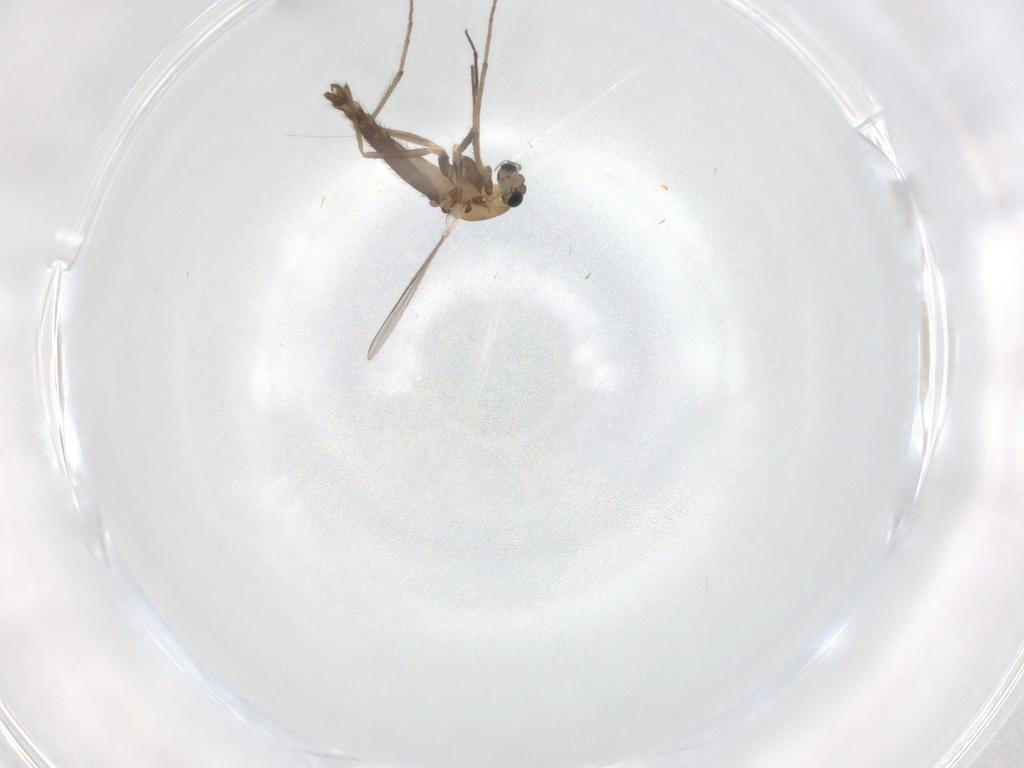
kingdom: Animalia
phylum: Arthropoda
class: Insecta
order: Diptera
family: Chironomidae
